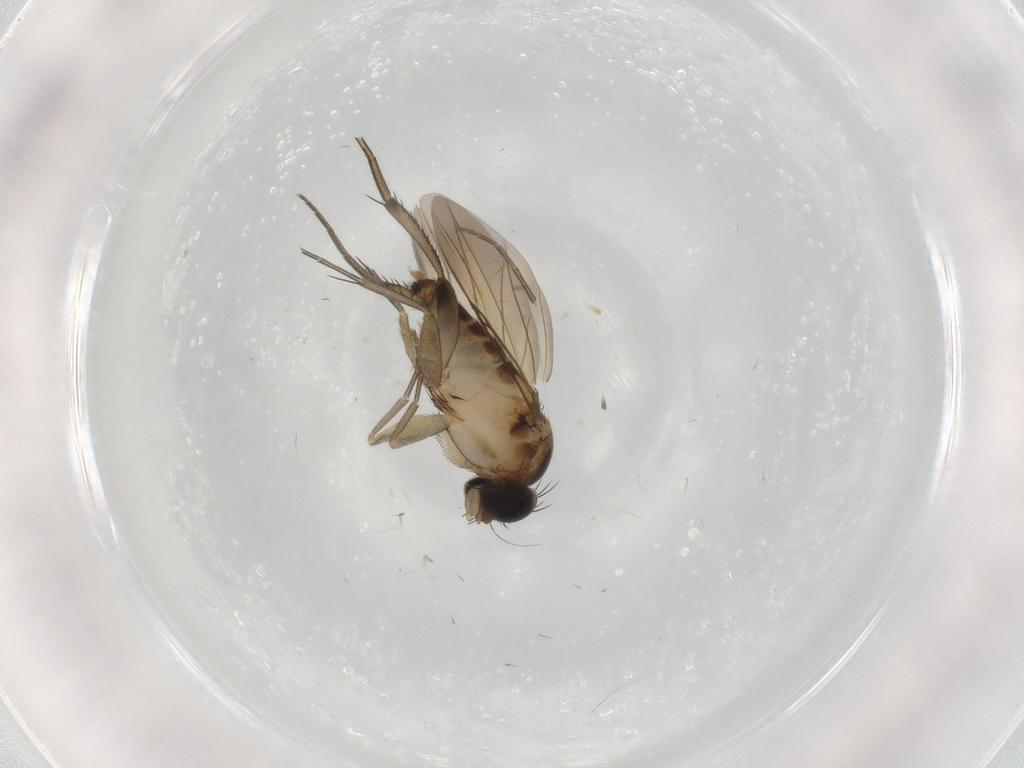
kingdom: Animalia
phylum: Arthropoda
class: Insecta
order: Diptera
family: Phoridae
